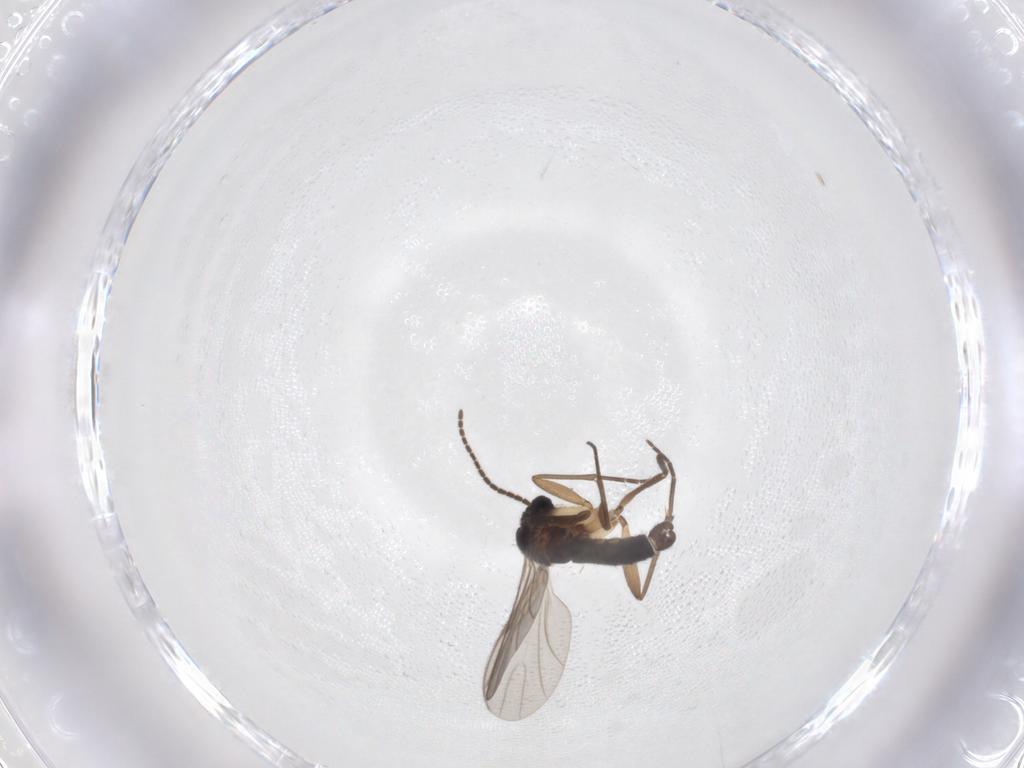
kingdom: Animalia
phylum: Arthropoda
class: Insecta
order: Diptera
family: Sciaridae
